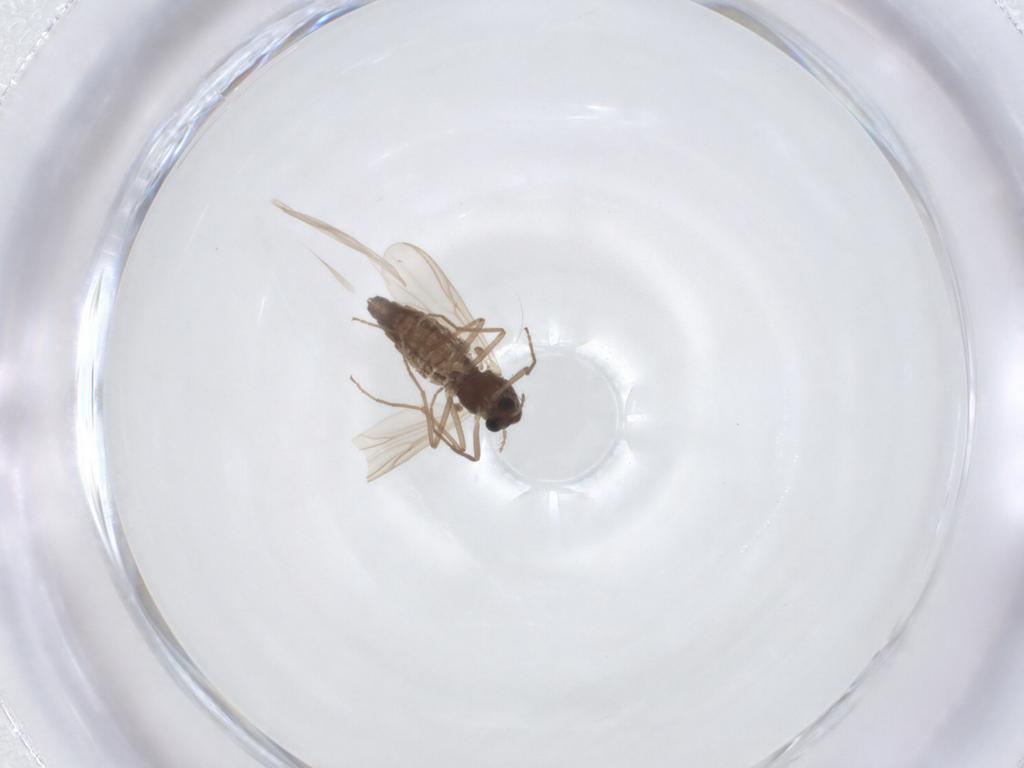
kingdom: Animalia
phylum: Arthropoda
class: Insecta
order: Diptera
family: Chironomidae
